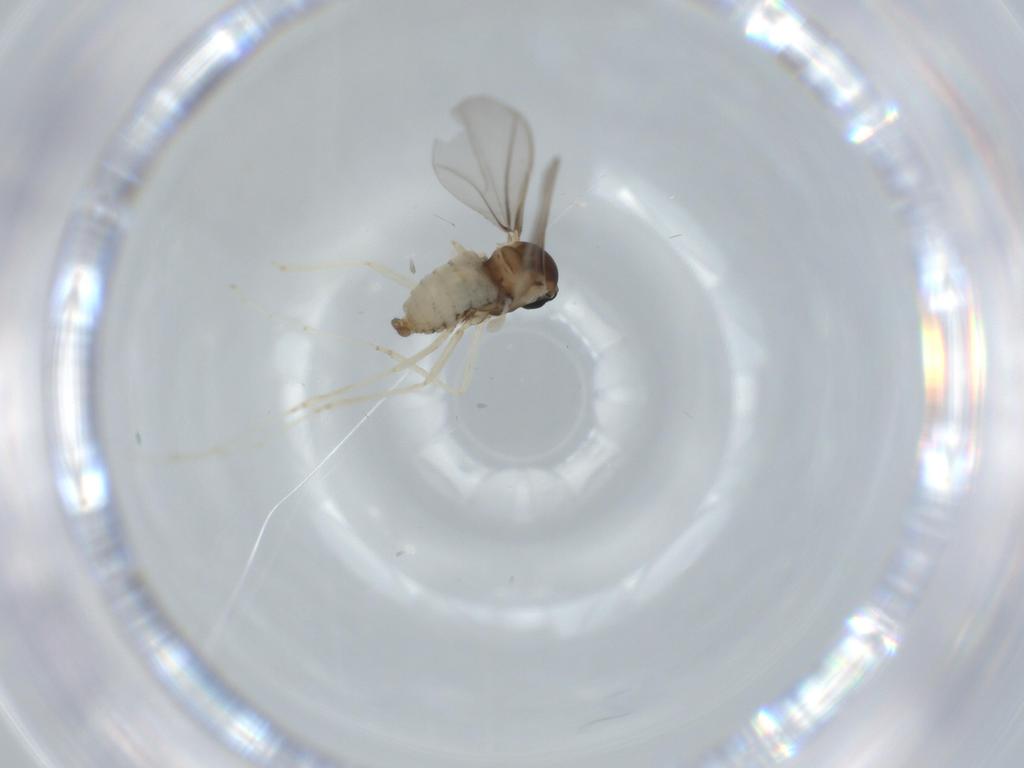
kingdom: Animalia
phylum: Arthropoda
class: Insecta
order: Diptera
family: Cecidomyiidae
